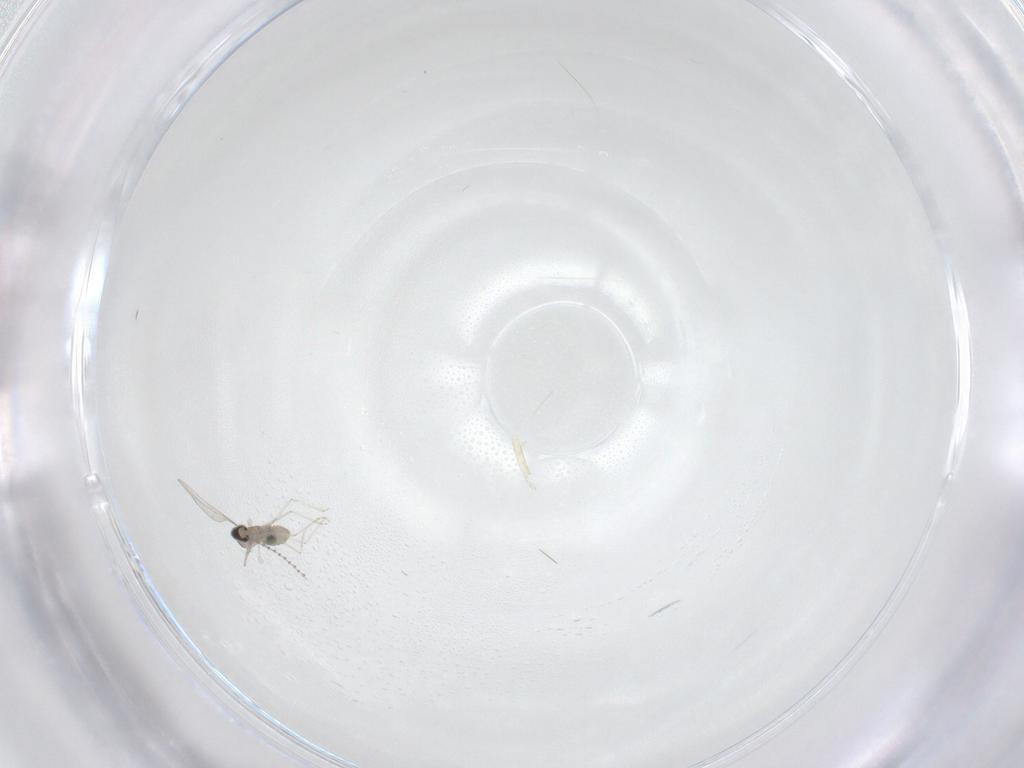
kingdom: Animalia
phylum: Arthropoda
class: Insecta
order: Diptera
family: Cecidomyiidae
